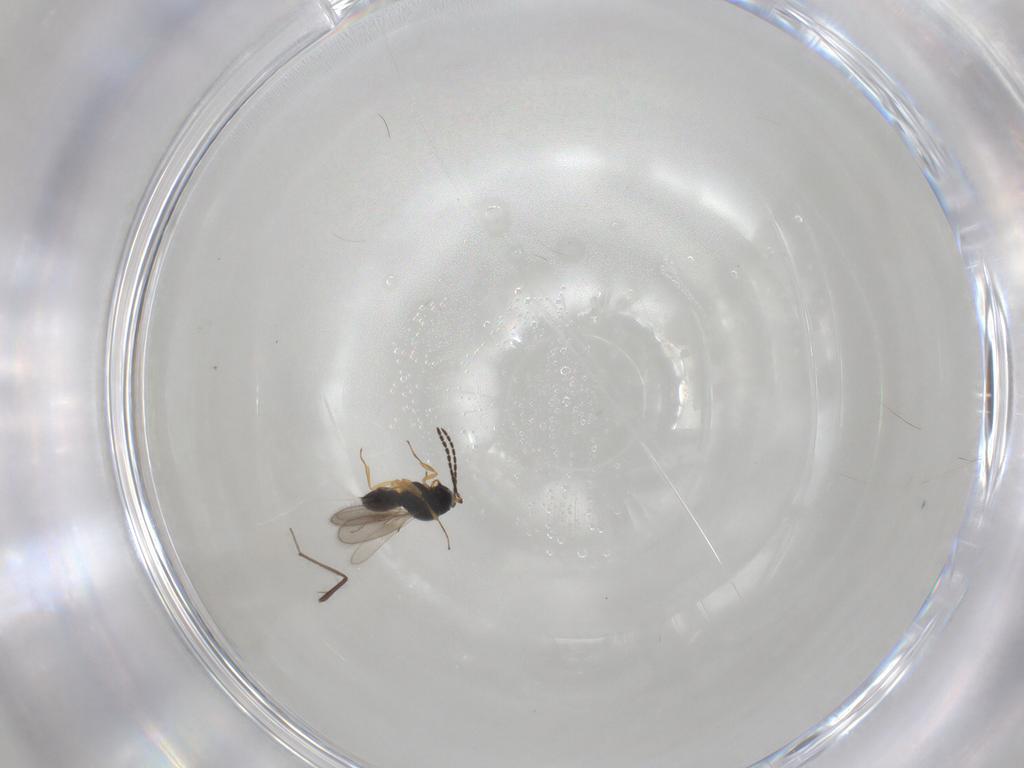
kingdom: Animalia
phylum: Arthropoda
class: Insecta
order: Hymenoptera
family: Scelionidae
